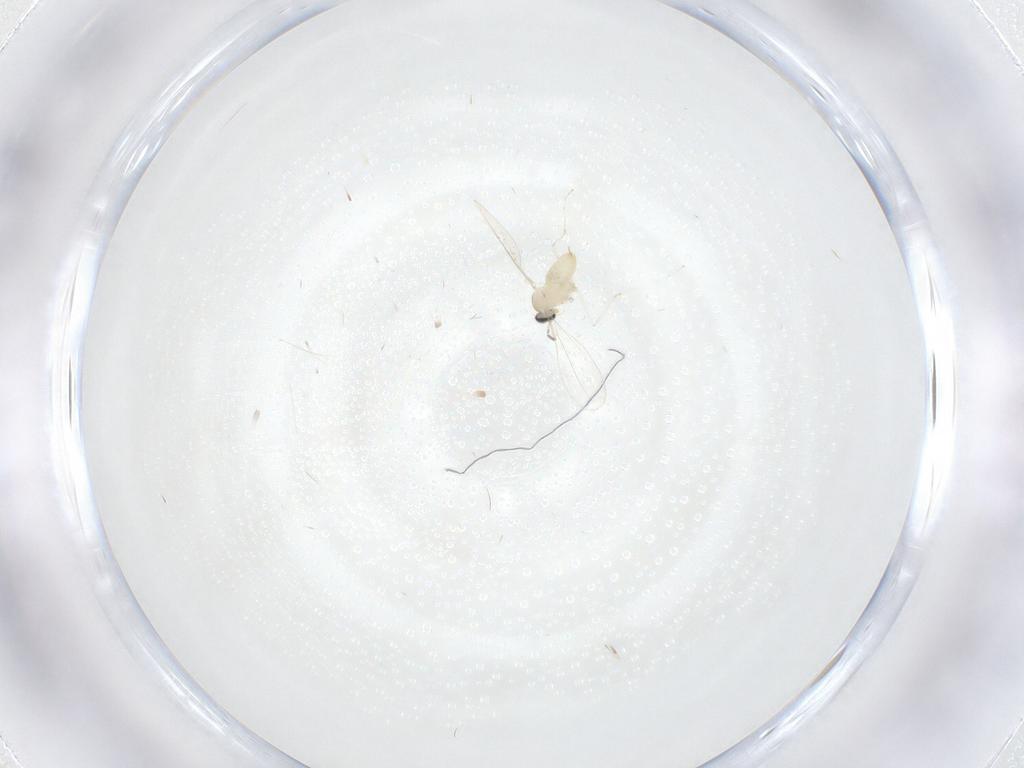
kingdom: Animalia
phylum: Arthropoda
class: Insecta
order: Diptera
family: Cecidomyiidae
